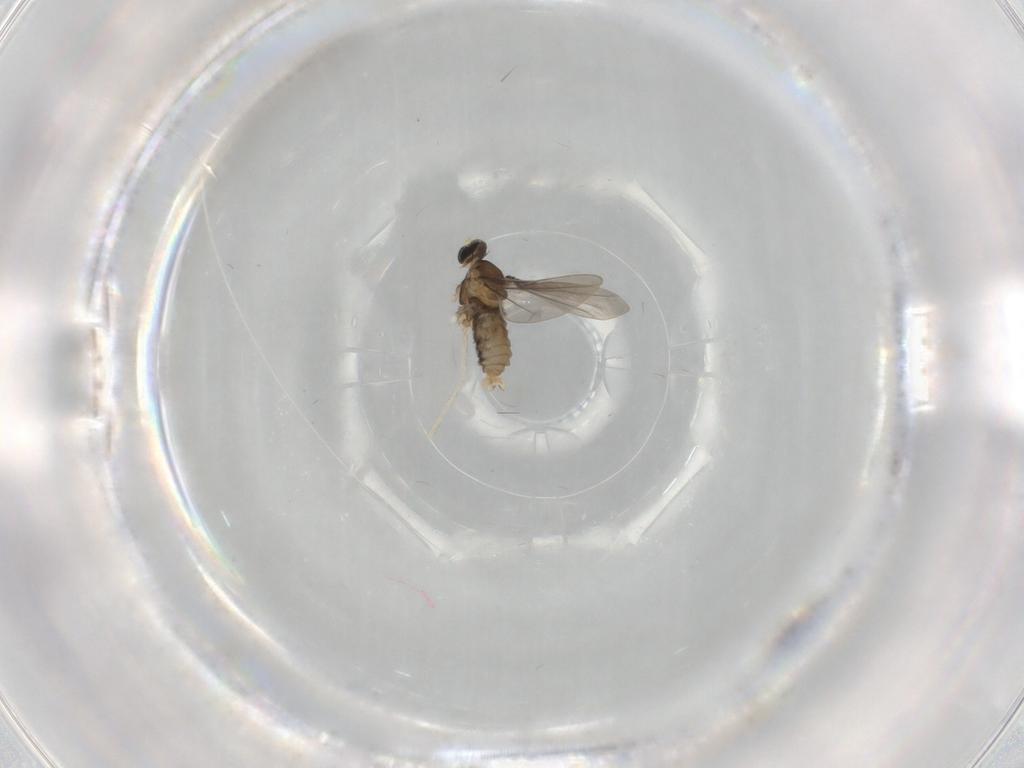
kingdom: Animalia
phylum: Arthropoda
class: Insecta
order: Diptera
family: Cecidomyiidae
